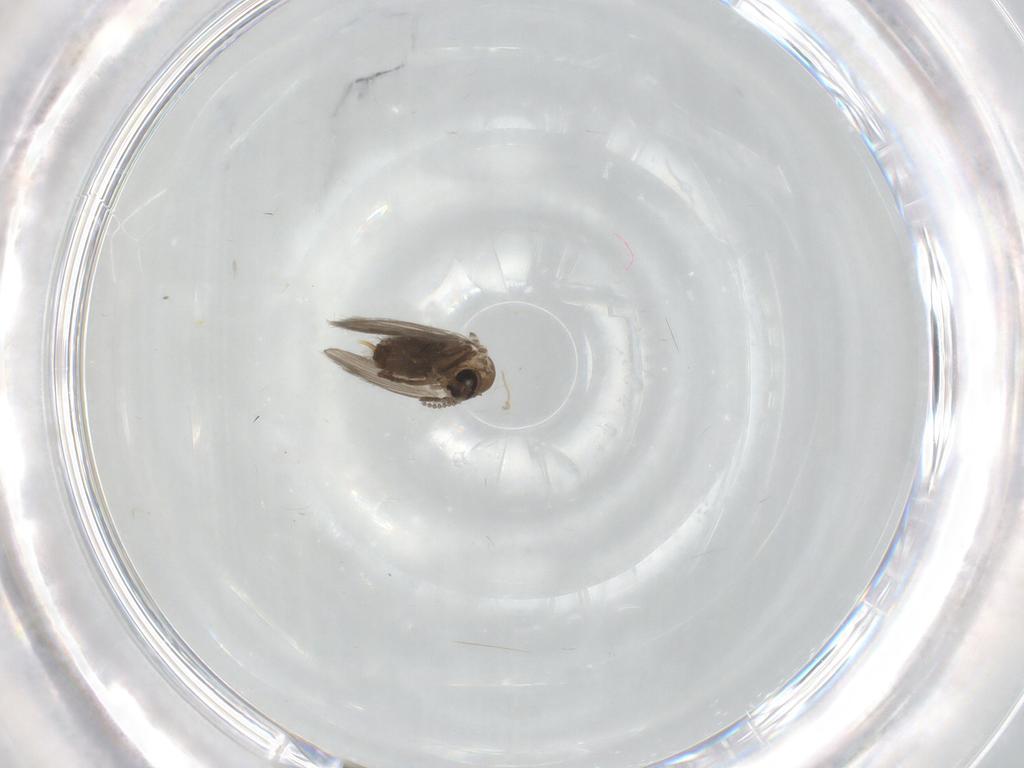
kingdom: Animalia
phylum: Arthropoda
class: Insecta
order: Diptera
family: Psychodidae
